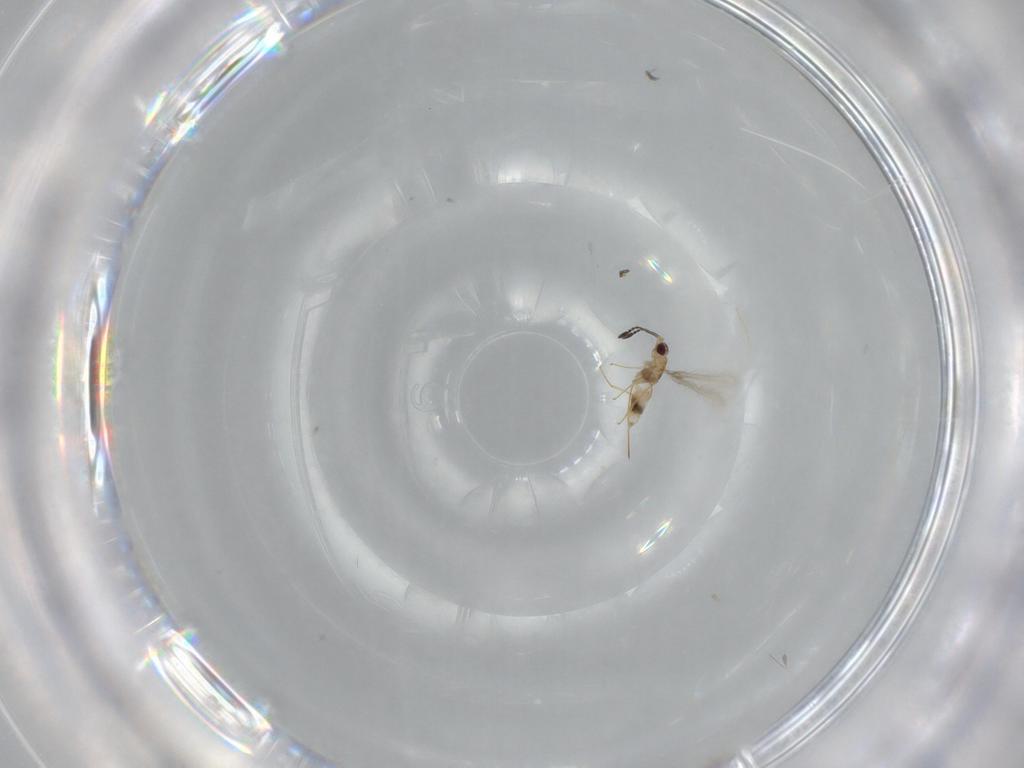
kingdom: Animalia
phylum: Arthropoda
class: Insecta
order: Hymenoptera
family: Mymaridae
